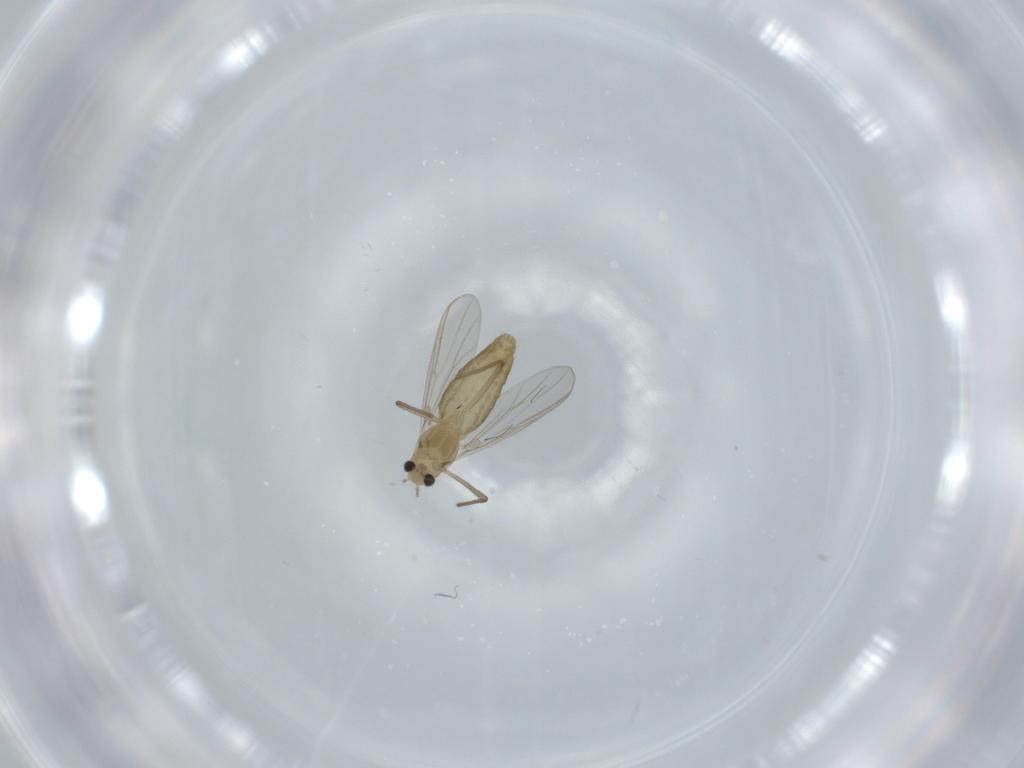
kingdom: Animalia
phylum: Arthropoda
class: Insecta
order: Diptera
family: Chironomidae
